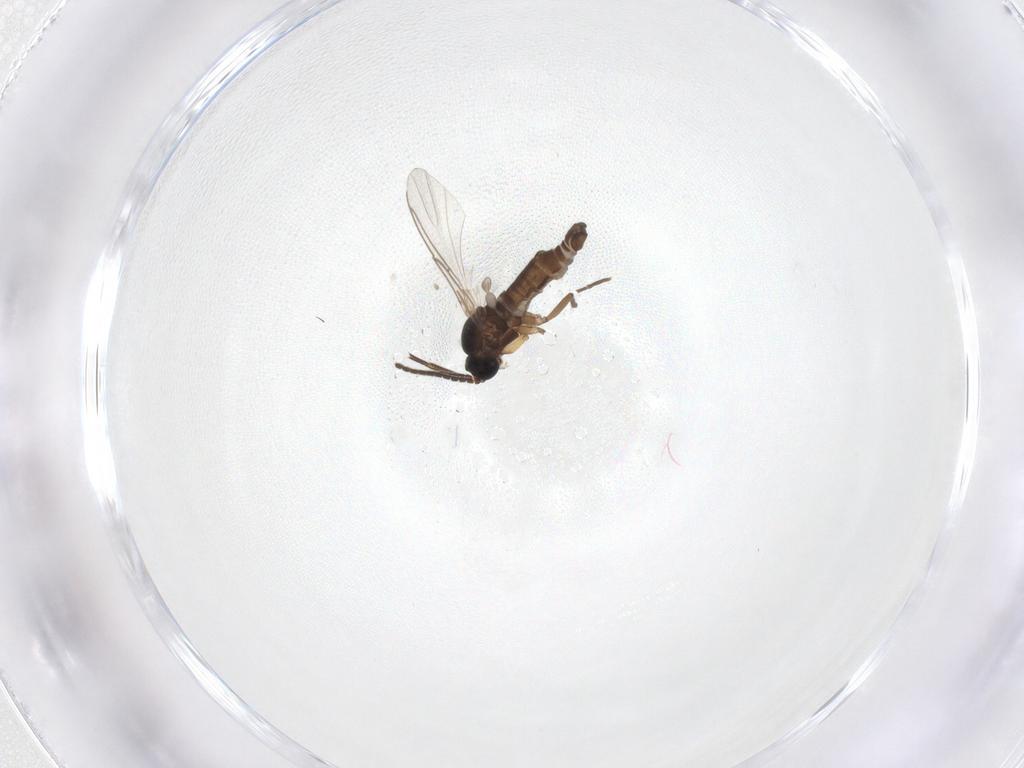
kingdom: Animalia
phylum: Arthropoda
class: Insecta
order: Diptera
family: Sciaridae
